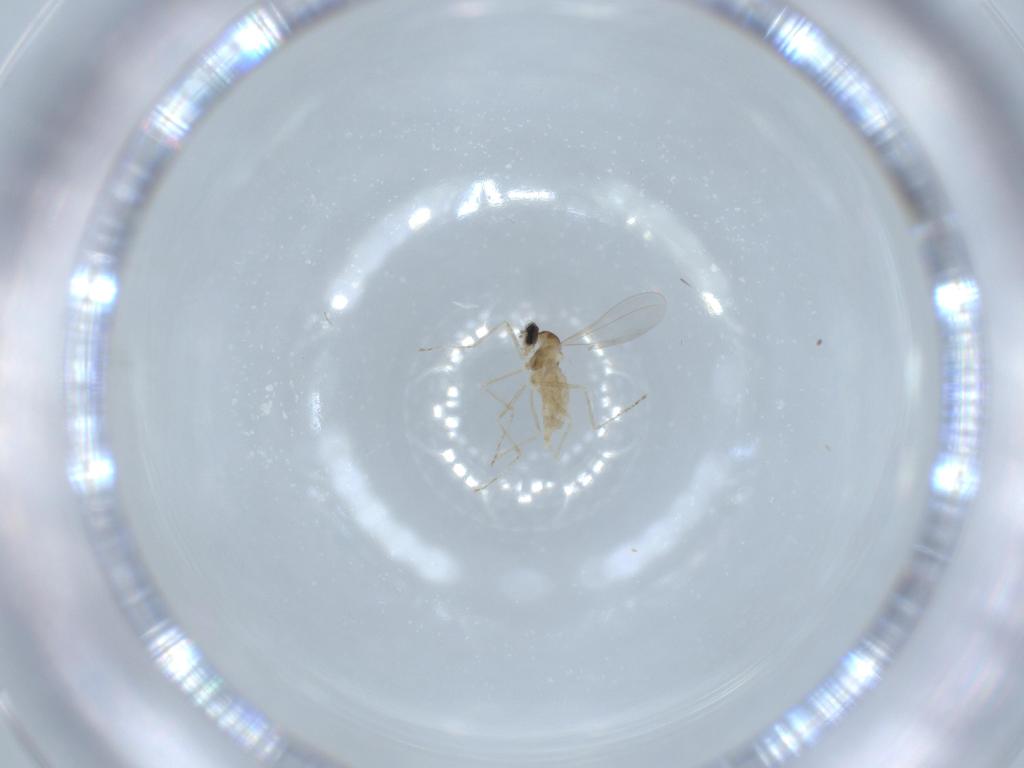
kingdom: Animalia
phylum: Arthropoda
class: Insecta
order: Diptera
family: Cecidomyiidae
